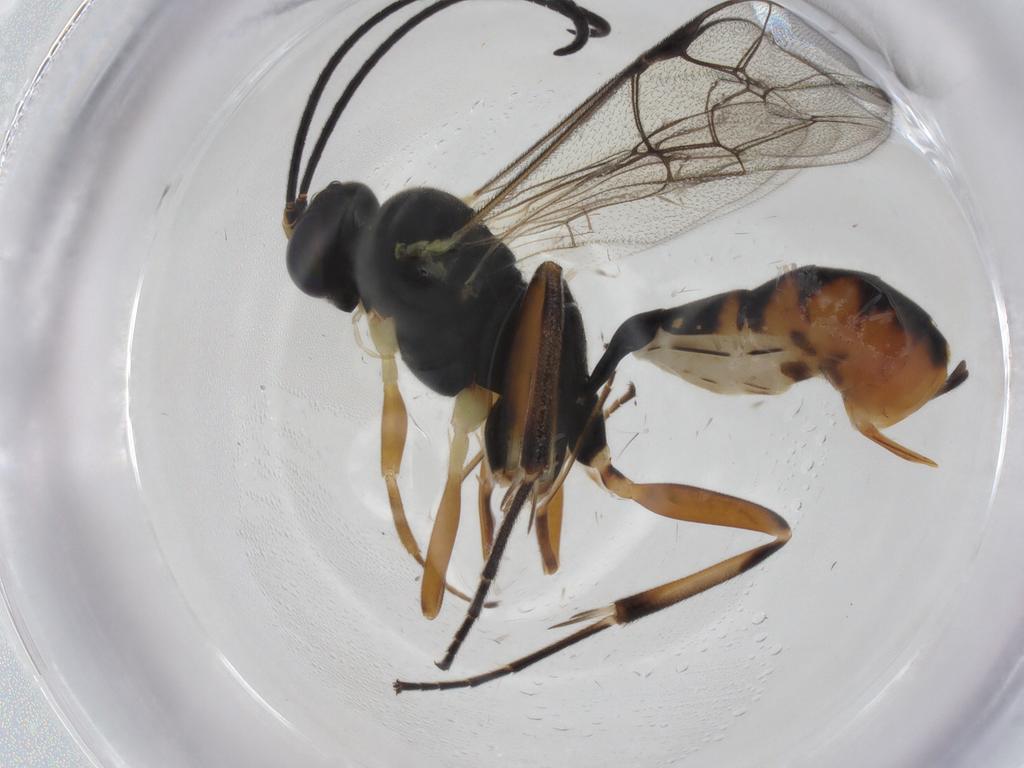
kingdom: Animalia
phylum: Arthropoda
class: Insecta
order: Hymenoptera
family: Ichneumonidae
